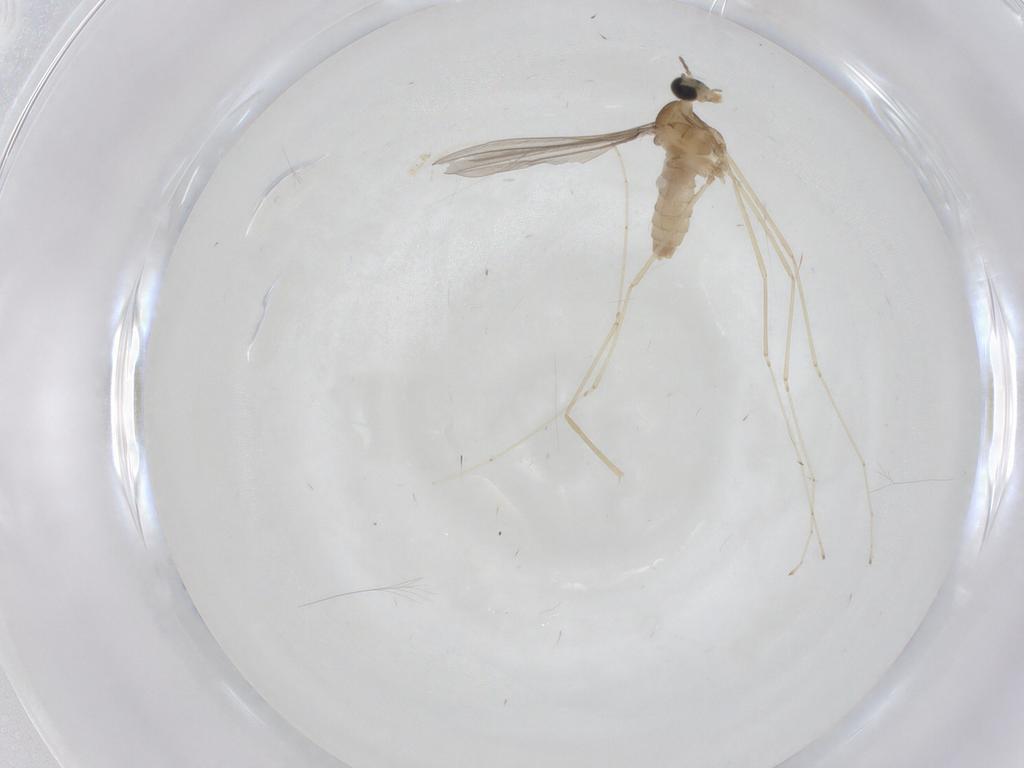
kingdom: Animalia
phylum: Arthropoda
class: Insecta
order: Diptera
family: Cecidomyiidae
